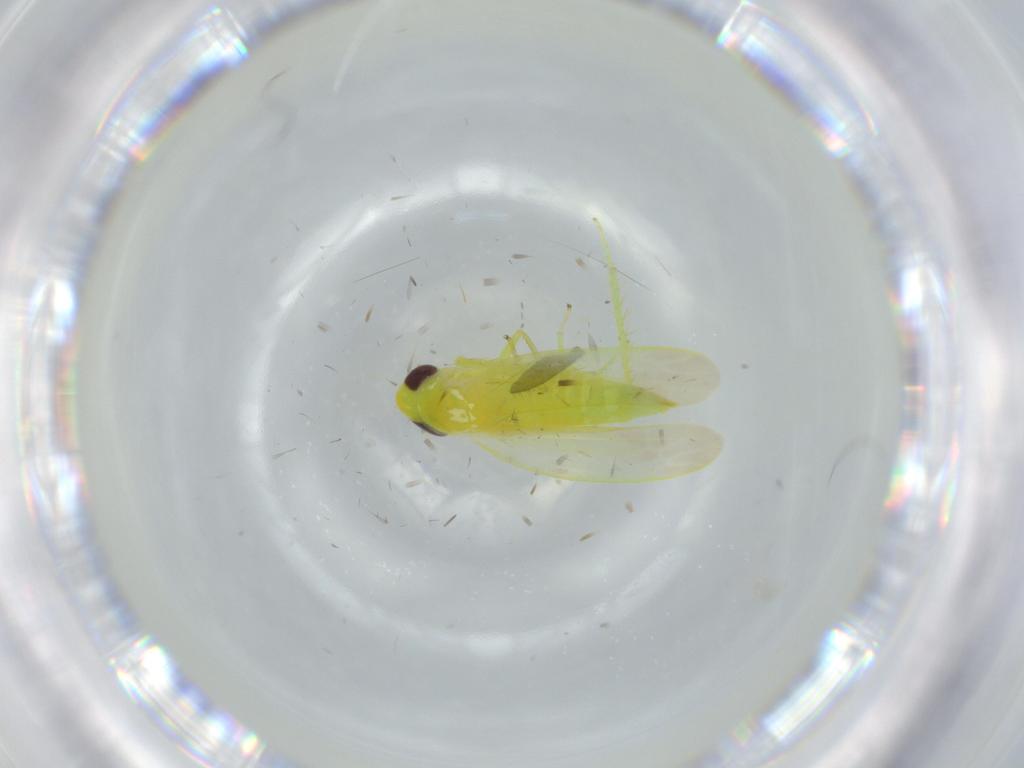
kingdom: Animalia
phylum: Arthropoda
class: Insecta
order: Hemiptera
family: Cicadellidae
